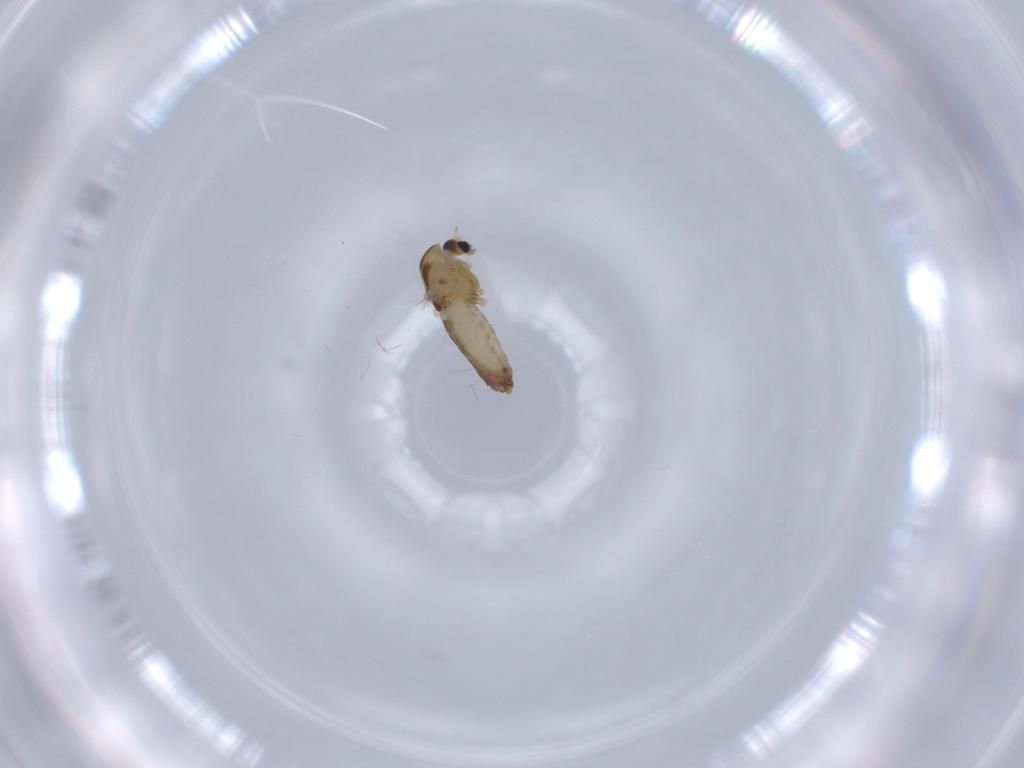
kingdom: Animalia
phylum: Arthropoda
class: Insecta
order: Diptera
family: Chironomidae
